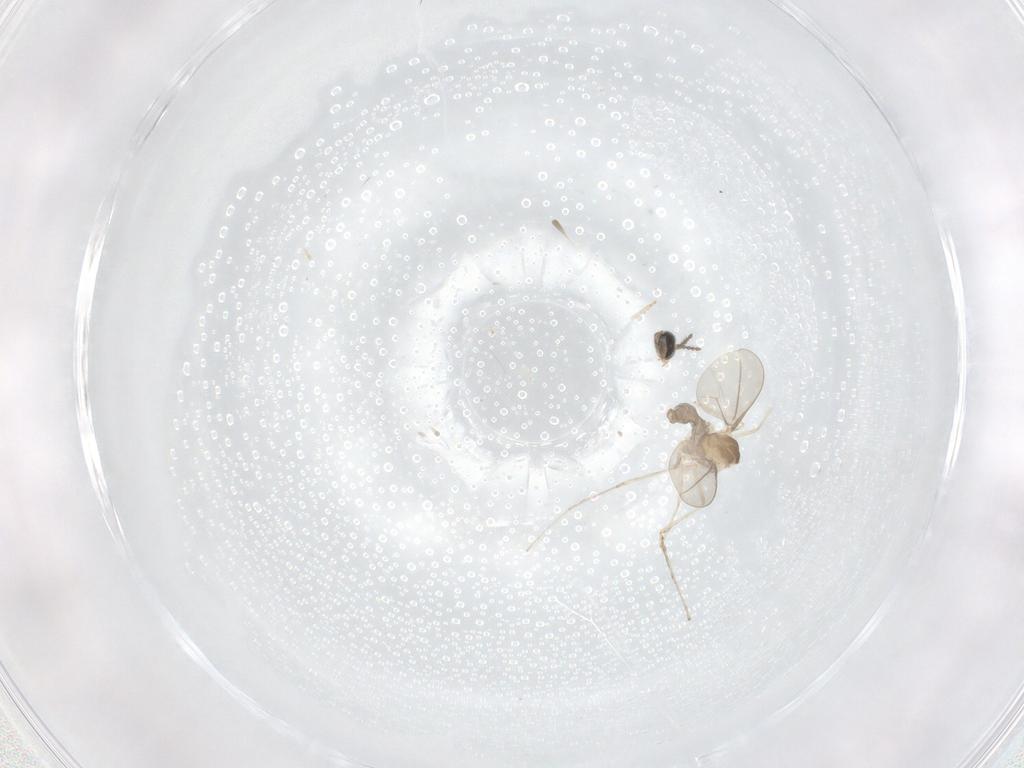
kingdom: Animalia
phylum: Arthropoda
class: Insecta
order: Diptera
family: Cecidomyiidae
